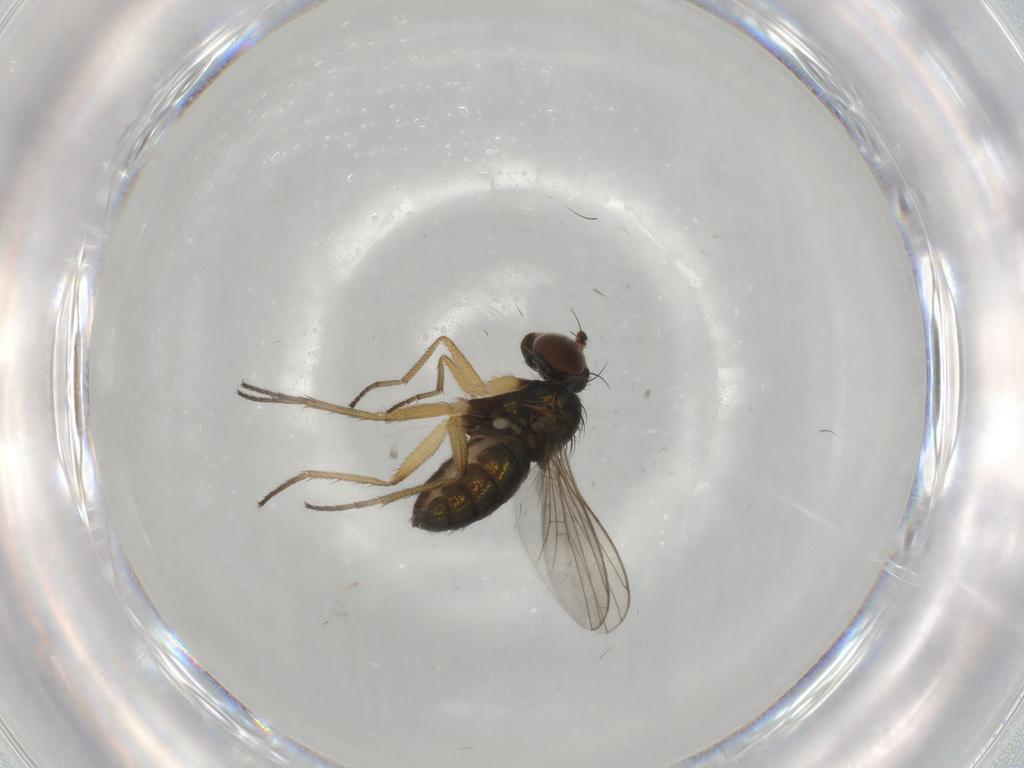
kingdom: Animalia
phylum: Arthropoda
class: Insecta
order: Diptera
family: Dolichopodidae
